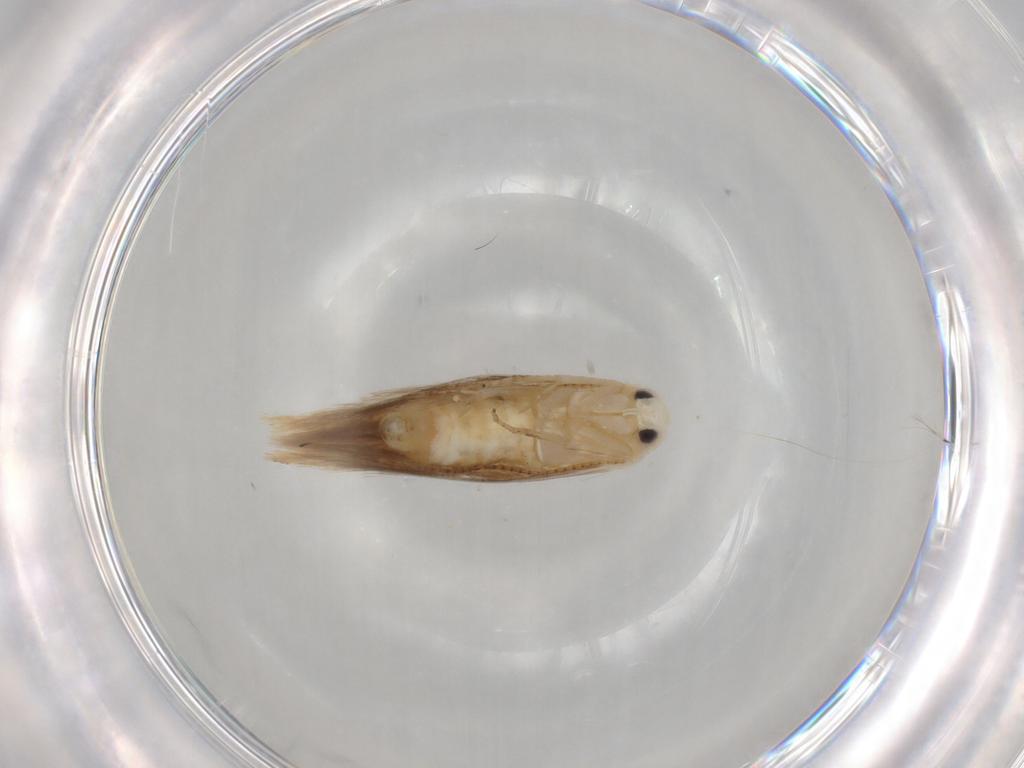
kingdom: Animalia
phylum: Arthropoda
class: Insecta
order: Lepidoptera
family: Bucculatricidae
